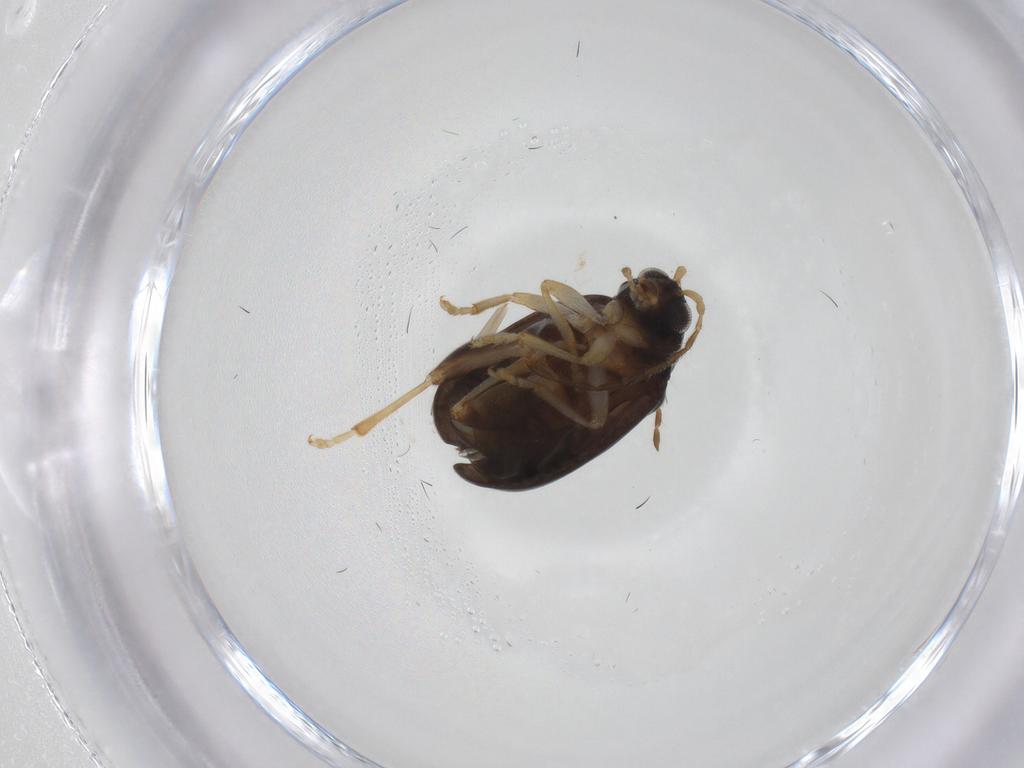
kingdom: Animalia
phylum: Arthropoda
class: Insecta
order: Coleoptera
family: Chrysomelidae
